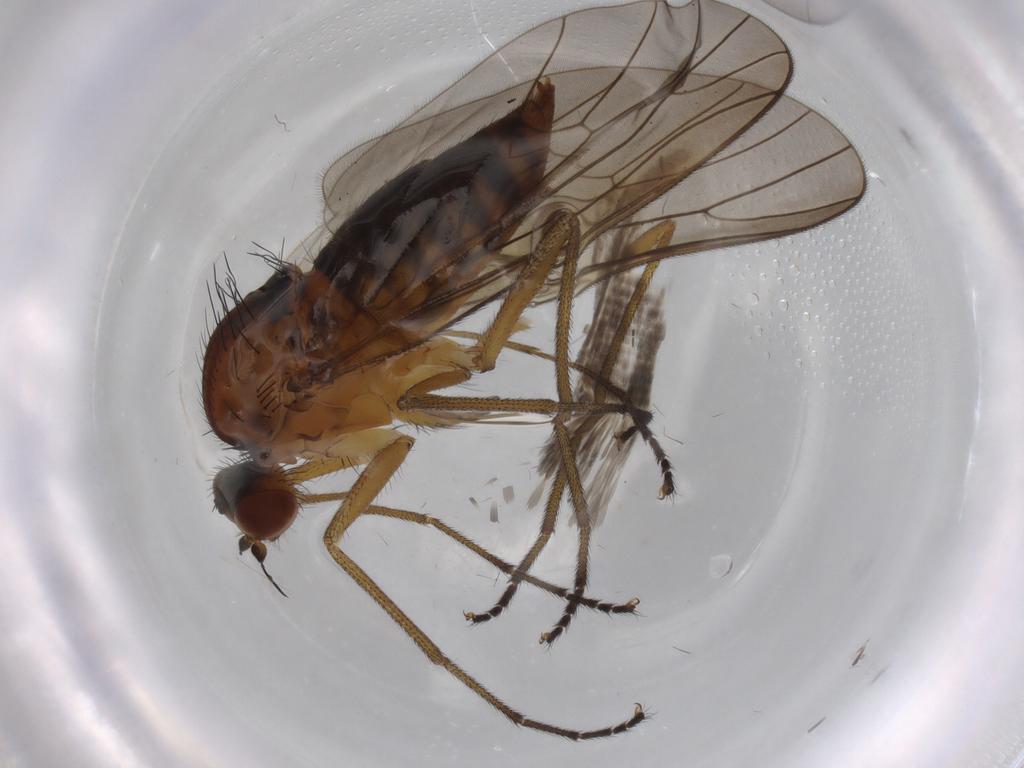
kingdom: Animalia
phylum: Arthropoda
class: Insecta
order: Diptera
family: Brachystomatidae
